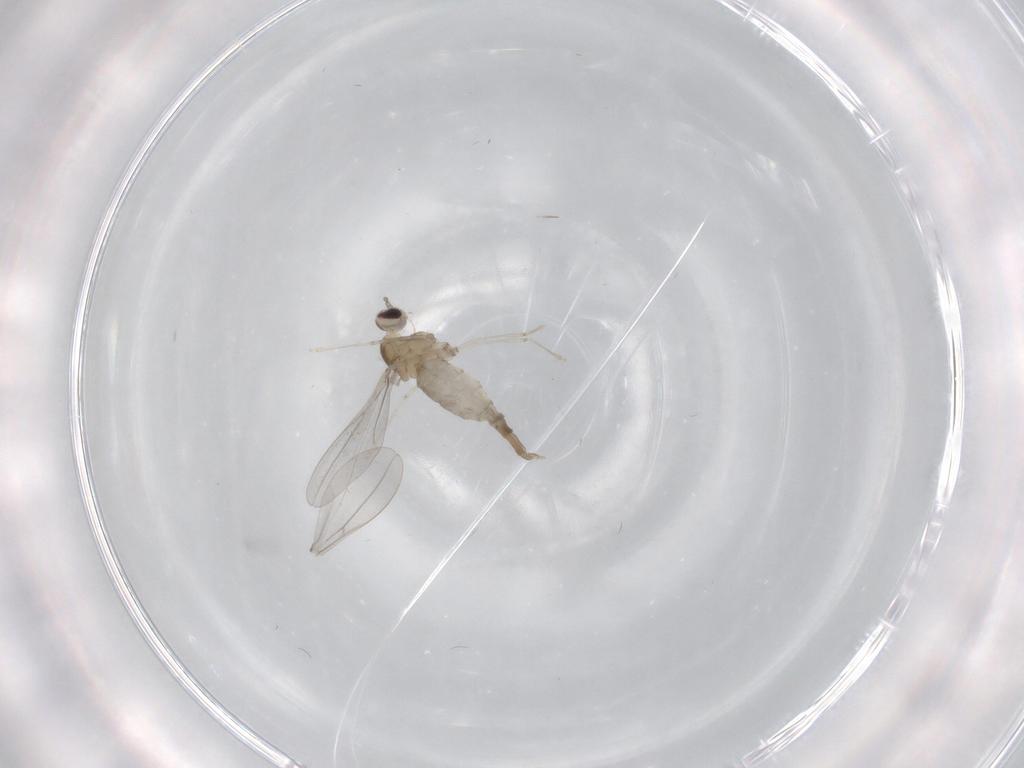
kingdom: Animalia
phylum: Arthropoda
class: Insecta
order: Diptera
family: Cecidomyiidae
